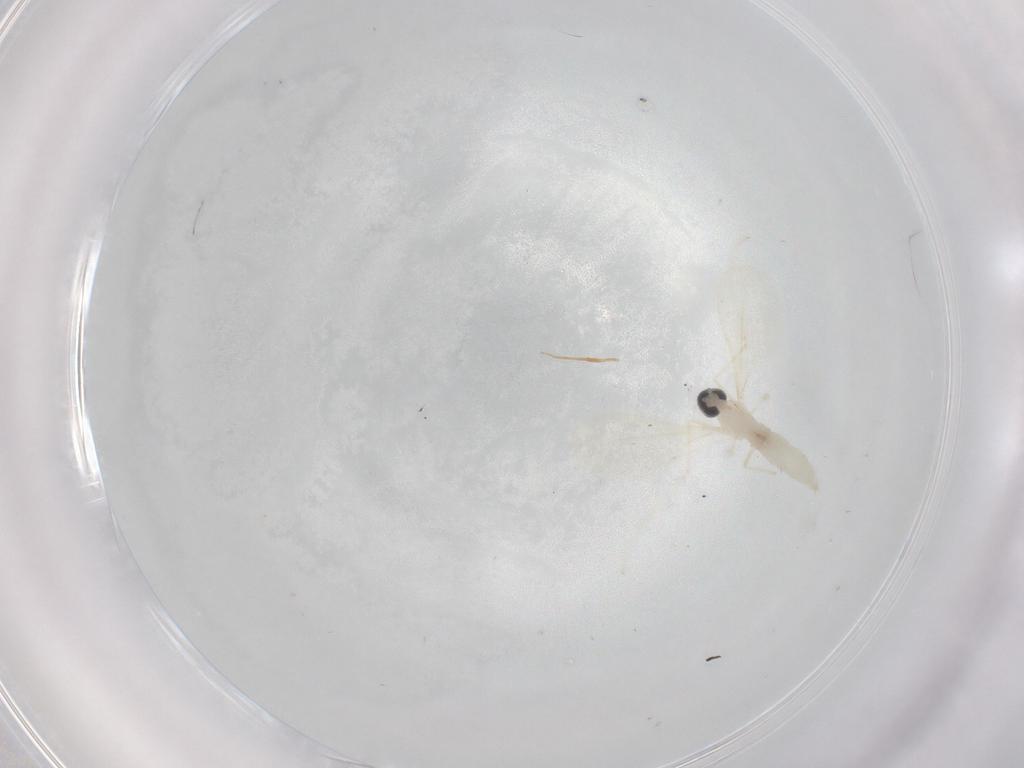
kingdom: Animalia
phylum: Arthropoda
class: Insecta
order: Diptera
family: Cecidomyiidae
